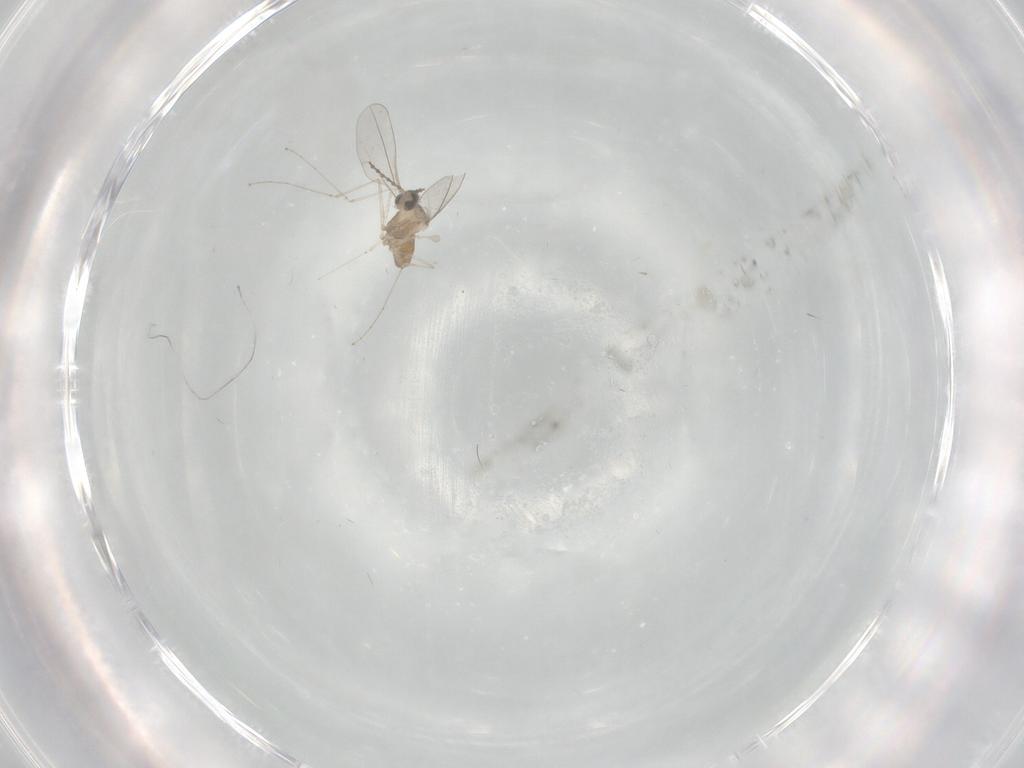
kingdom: Animalia
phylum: Arthropoda
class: Insecta
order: Diptera
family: Cecidomyiidae
